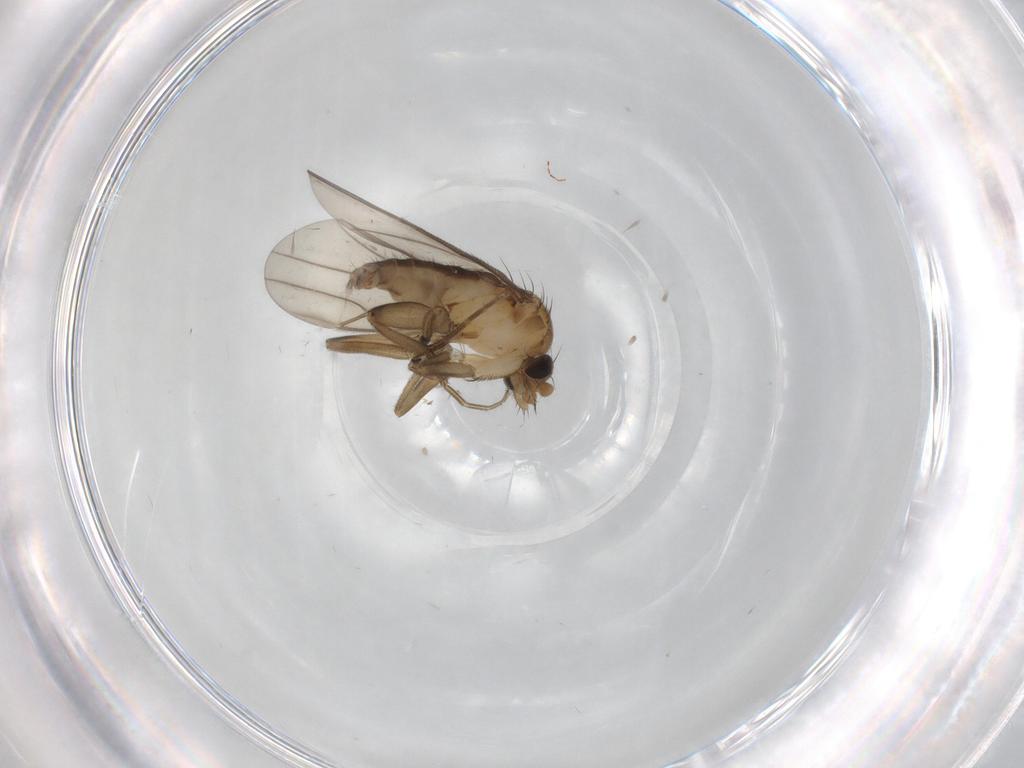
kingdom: Animalia
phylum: Arthropoda
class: Insecta
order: Diptera
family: Phoridae
